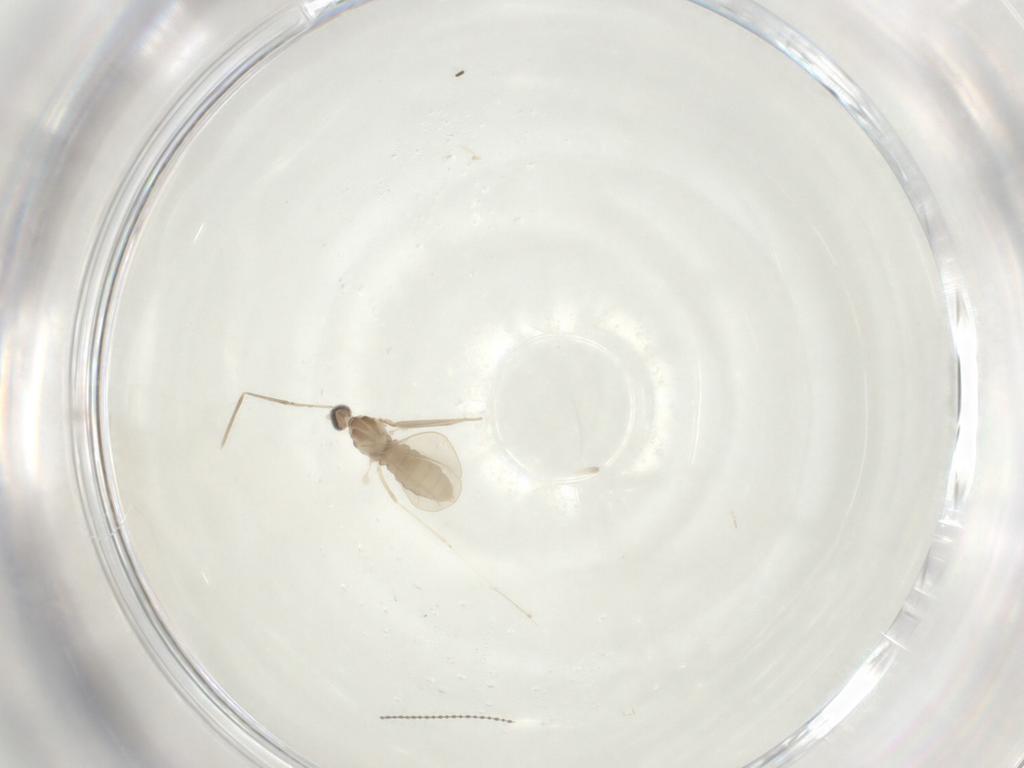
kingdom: Animalia
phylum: Arthropoda
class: Insecta
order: Diptera
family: Cecidomyiidae
